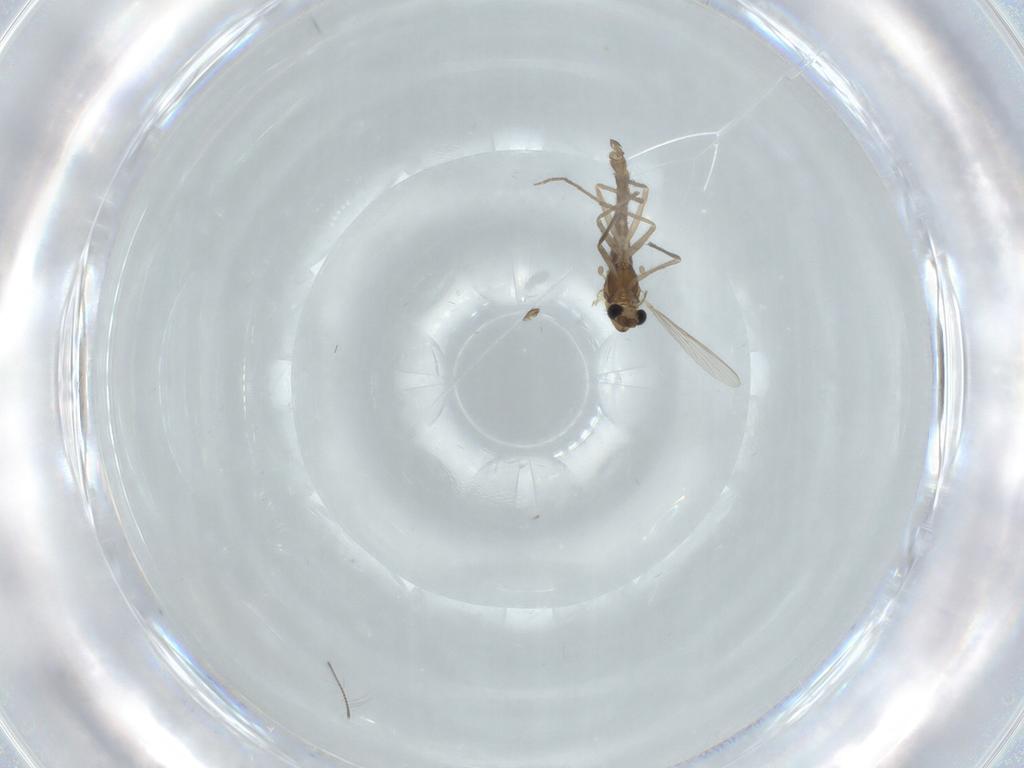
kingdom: Animalia
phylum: Arthropoda
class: Insecta
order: Diptera
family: Chironomidae
